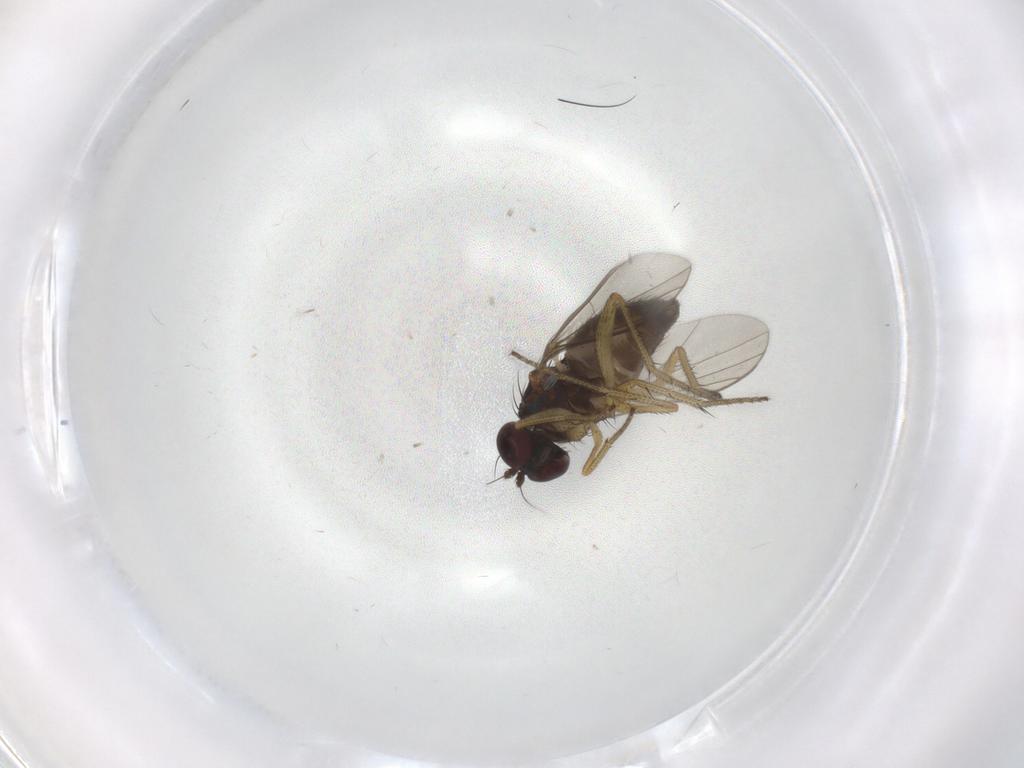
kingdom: Animalia
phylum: Arthropoda
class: Insecta
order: Diptera
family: Dolichopodidae
